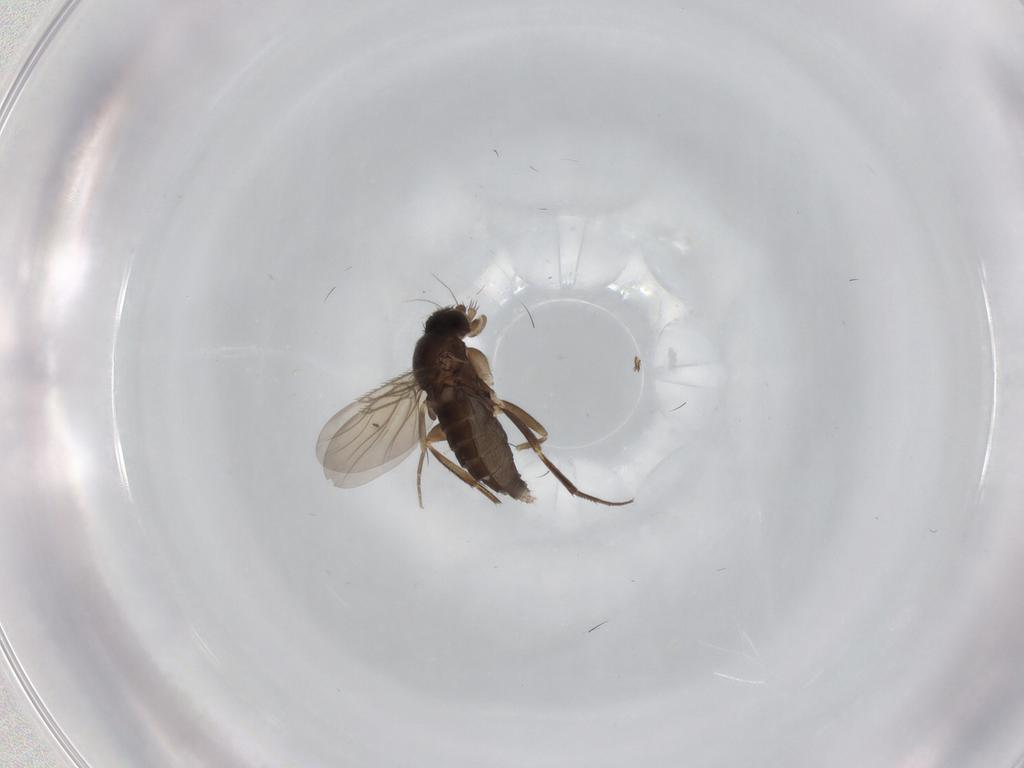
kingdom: Animalia
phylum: Arthropoda
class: Insecta
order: Diptera
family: Phoridae
